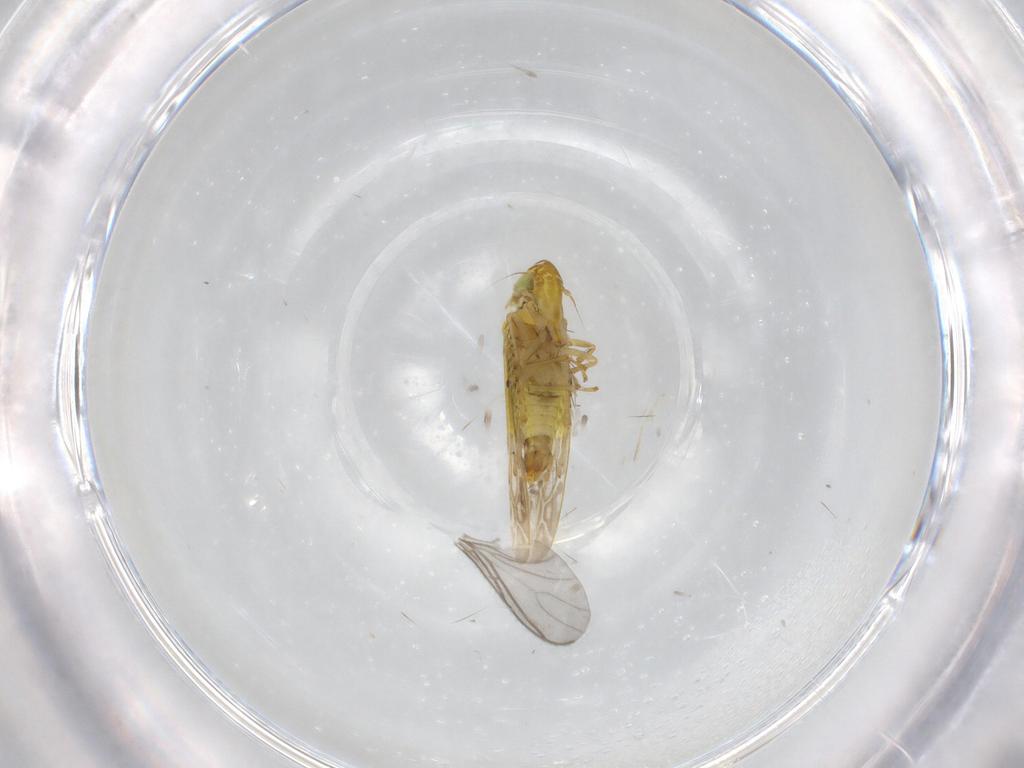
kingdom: Animalia
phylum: Arthropoda
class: Insecta
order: Hemiptera
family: Cicadellidae
